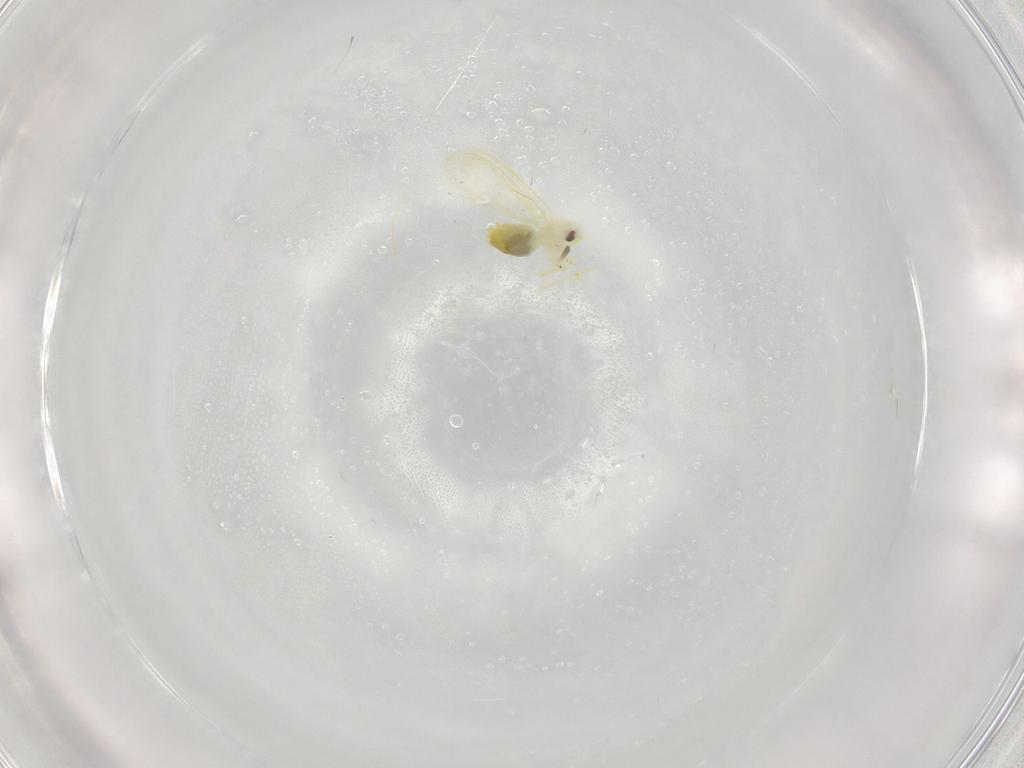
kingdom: Animalia
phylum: Arthropoda
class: Insecta
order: Hemiptera
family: Aleyrodidae
